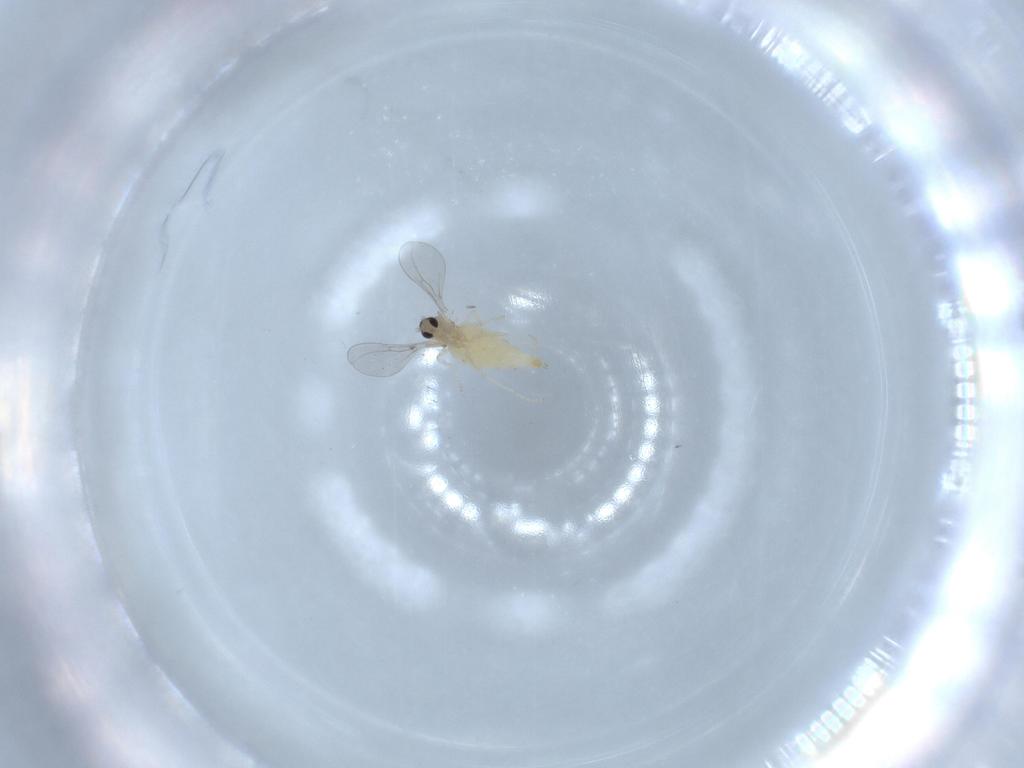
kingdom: Animalia
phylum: Arthropoda
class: Insecta
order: Diptera
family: Cecidomyiidae
